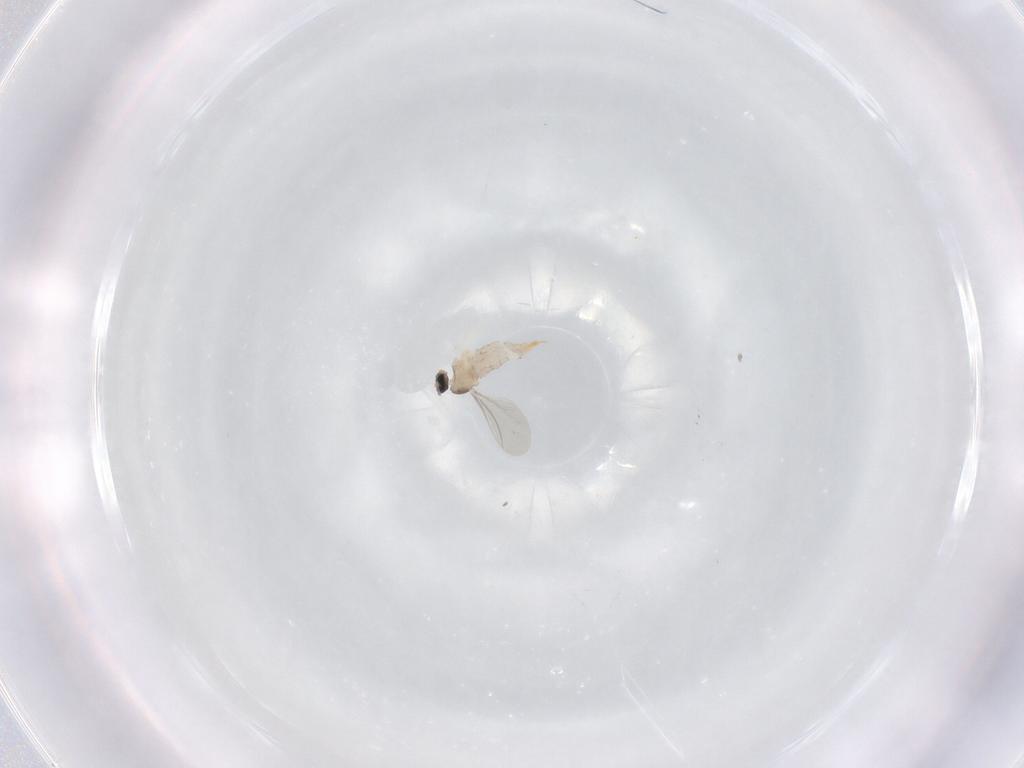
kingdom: Animalia
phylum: Arthropoda
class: Insecta
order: Diptera
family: Cecidomyiidae
